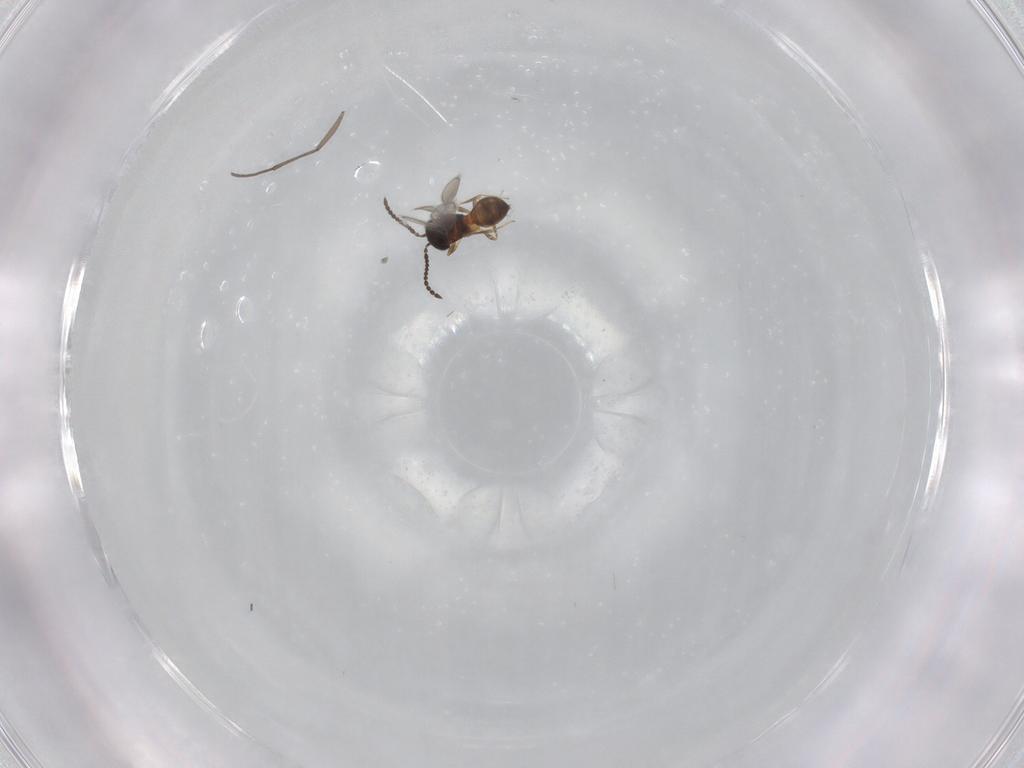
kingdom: Animalia
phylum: Arthropoda
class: Insecta
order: Hymenoptera
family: Scelionidae
